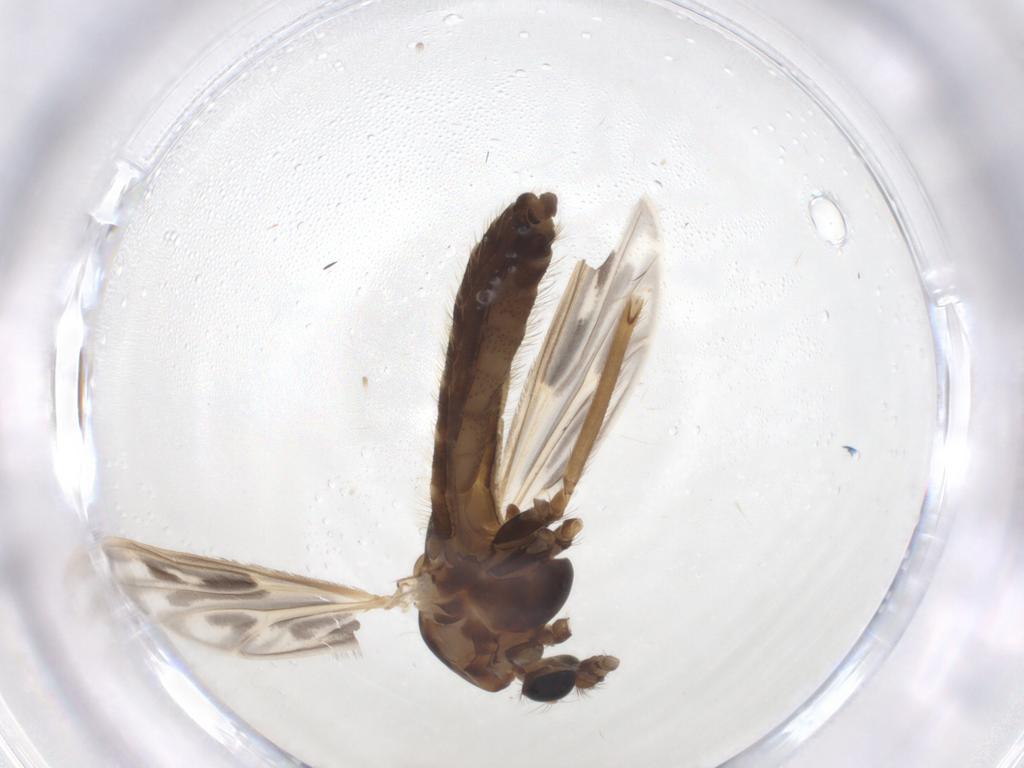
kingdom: Animalia
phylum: Arthropoda
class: Insecta
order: Diptera
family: Chironomidae
